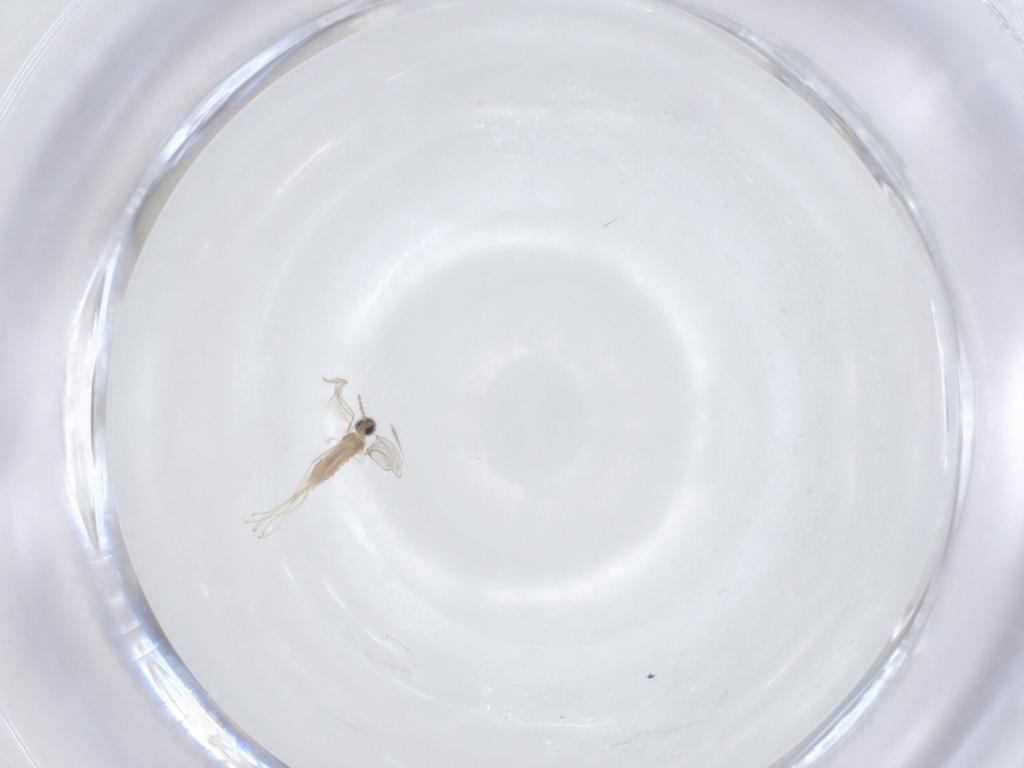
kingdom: Animalia
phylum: Arthropoda
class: Insecta
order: Diptera
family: Cecidomyiidae
